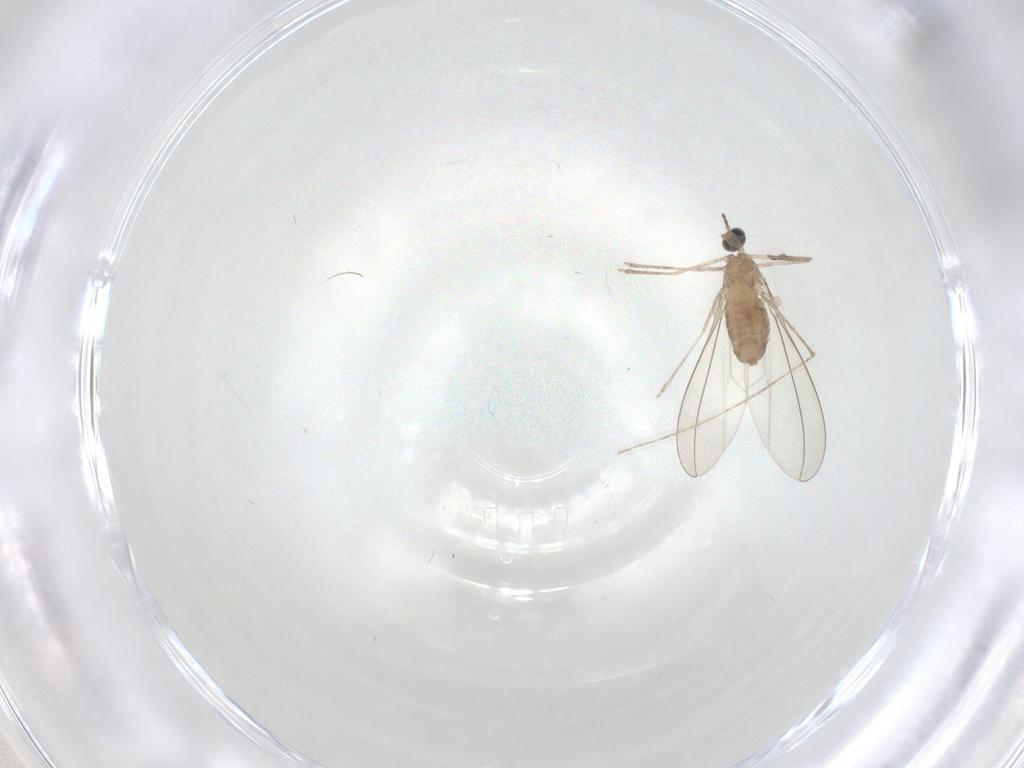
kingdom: Animalia
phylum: Arthropoda
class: Insecta
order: Diptera
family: Cecidomyiidae
